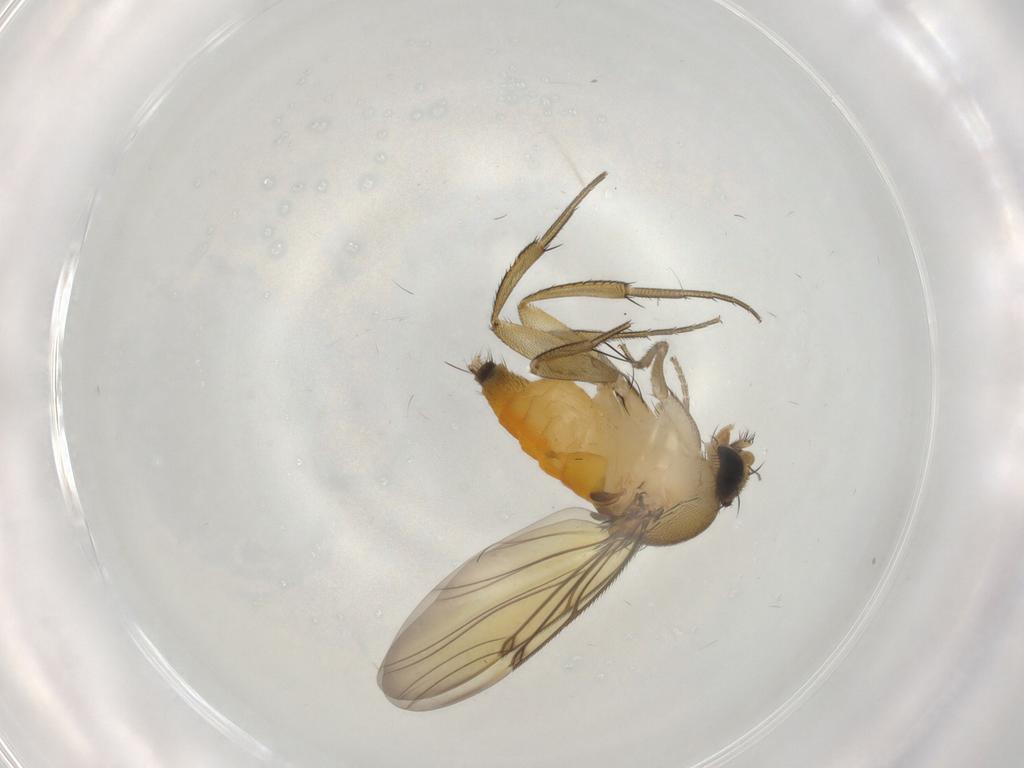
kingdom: Animalia
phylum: Arthropoda
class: Insecta
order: Diptera
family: Phoridae
